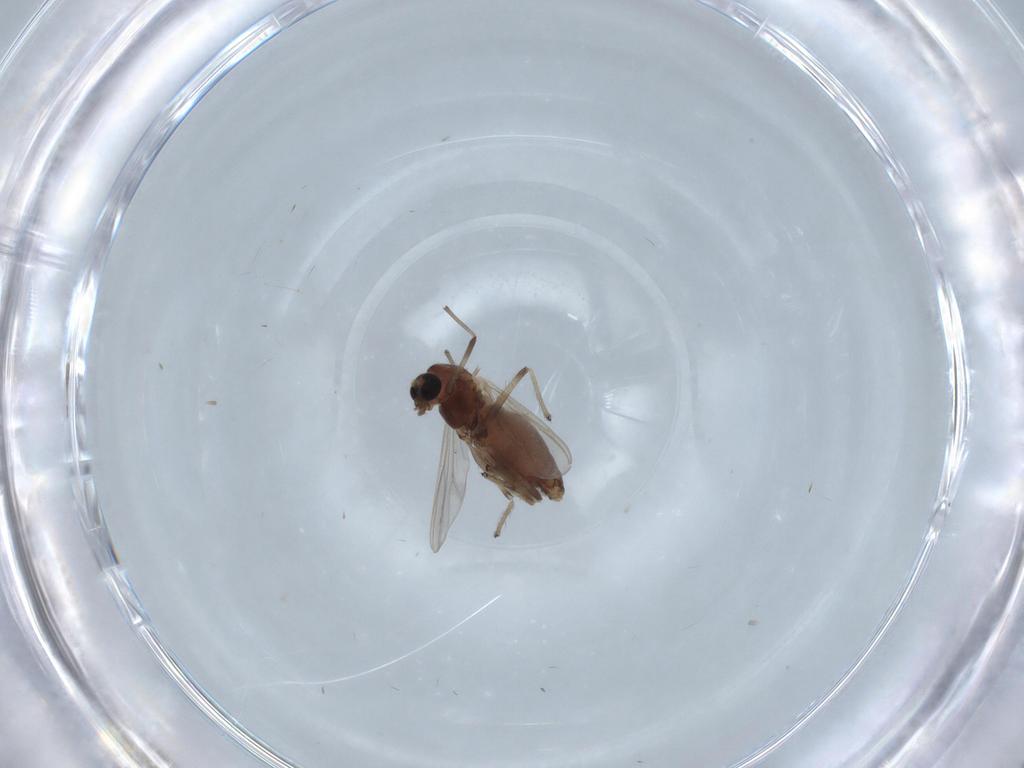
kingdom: Animalia
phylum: Arthropoda
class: Insecta
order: Diptera
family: Chironomidae
